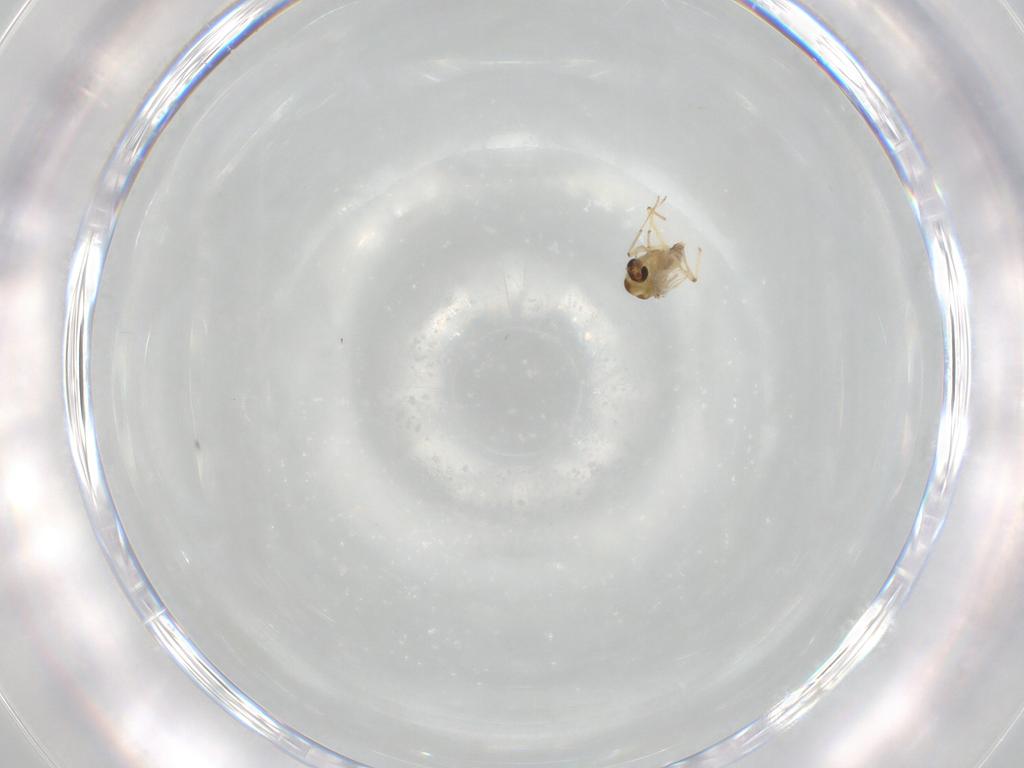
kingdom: Animalia
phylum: Arthropoda
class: Insecta
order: Diptera
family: Chironomidae
